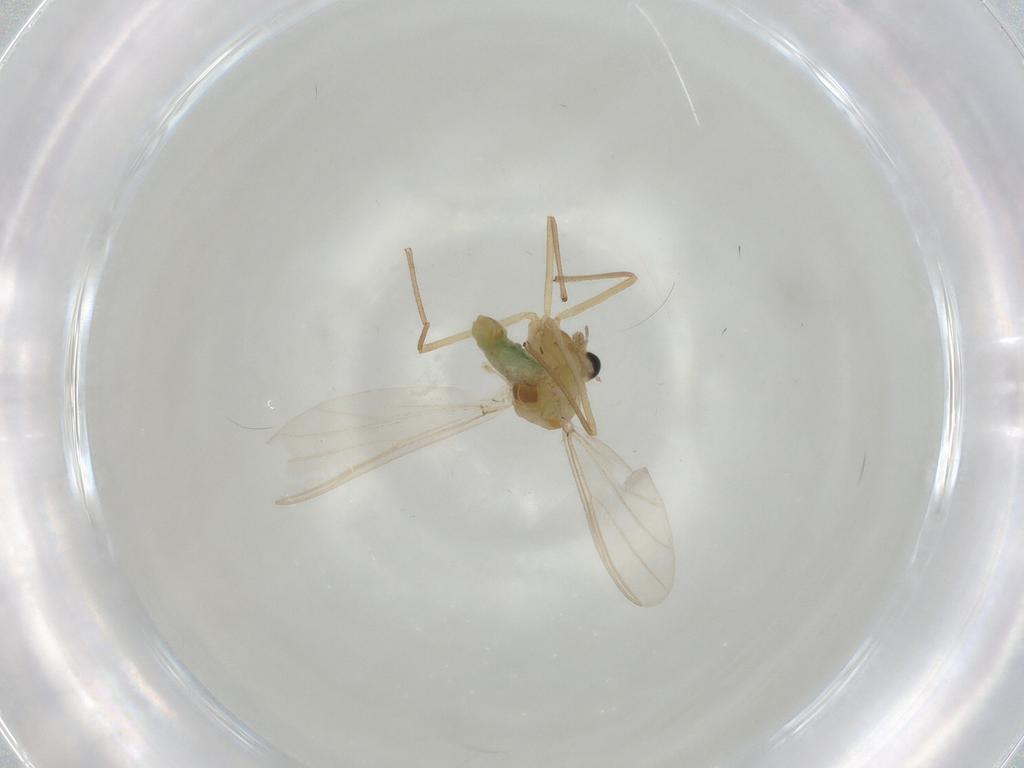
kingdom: Animalia
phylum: Arthropoda
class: Insecta
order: Diptera
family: Chironomidae
